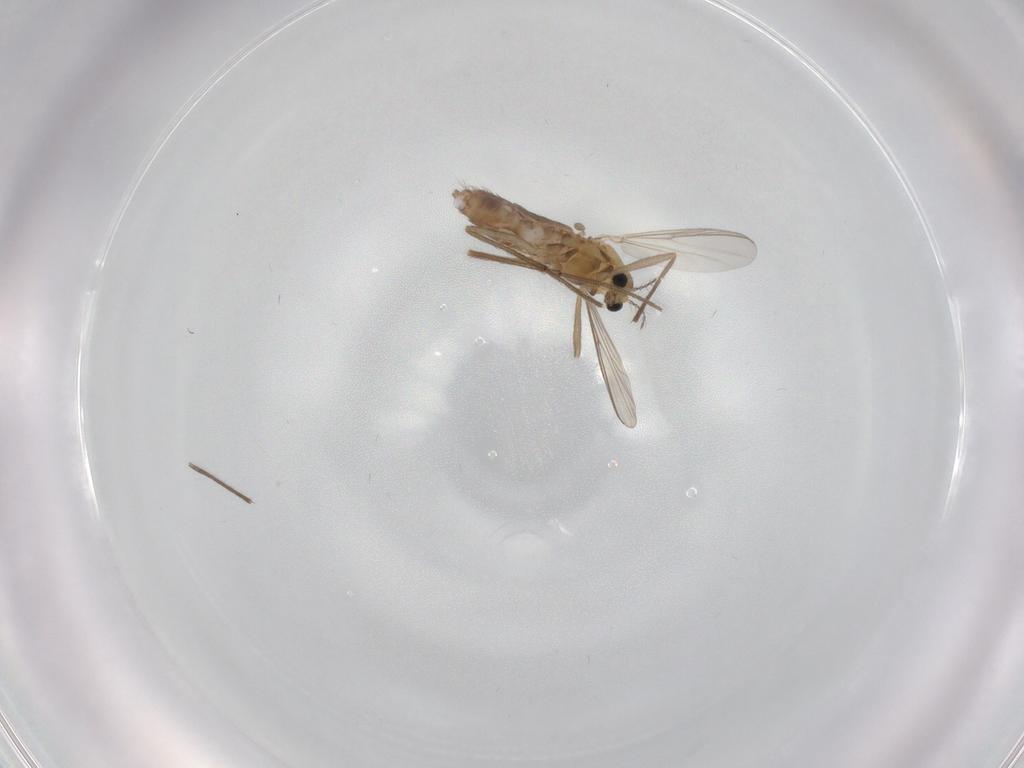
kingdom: Animalia
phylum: Arthropoda
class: Insecta
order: Diptera
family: Chironomidae
